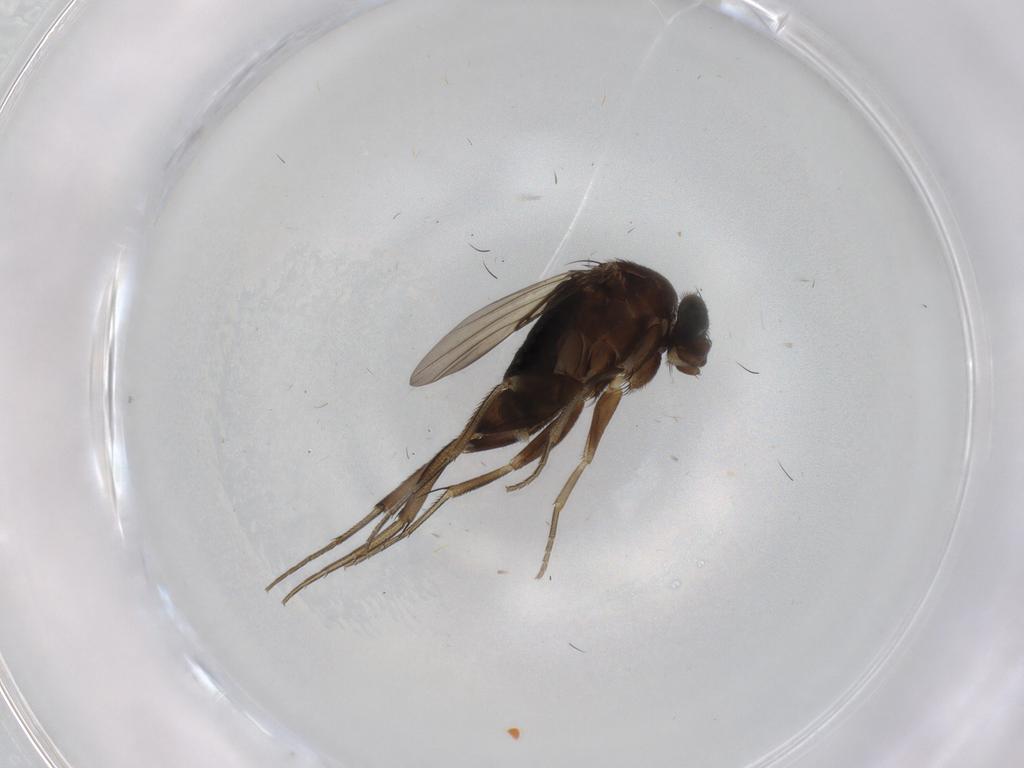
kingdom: Animalia
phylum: Arthropoda
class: Insecta
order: Diptera
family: Phoridae
